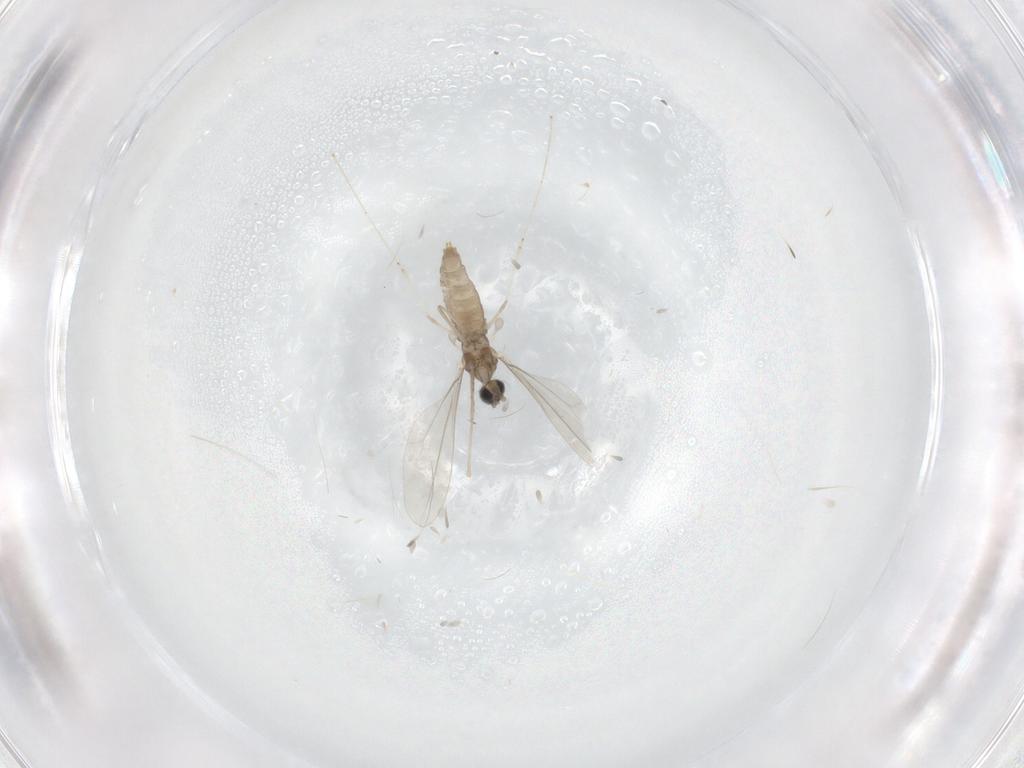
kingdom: Animalia
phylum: Arthropoda
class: Insecta
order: Diptera
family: Cecidomyiidae
